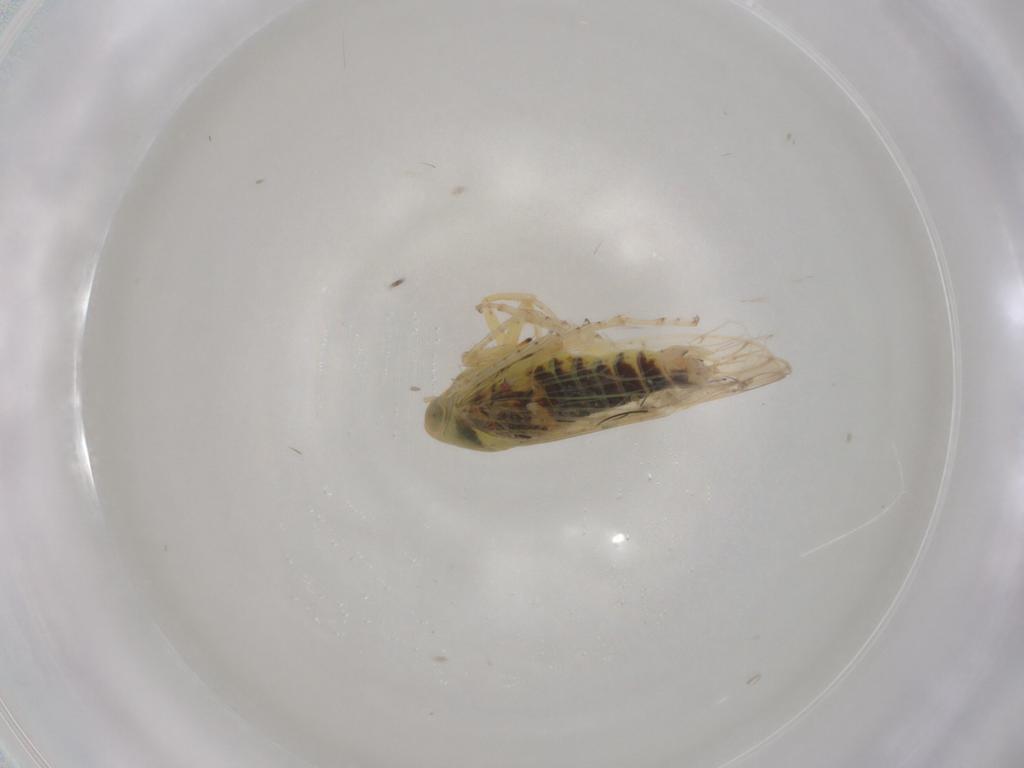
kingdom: Animalia
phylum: Arthropoda
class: Insecta
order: Hemiptera
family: Cicadellidae
